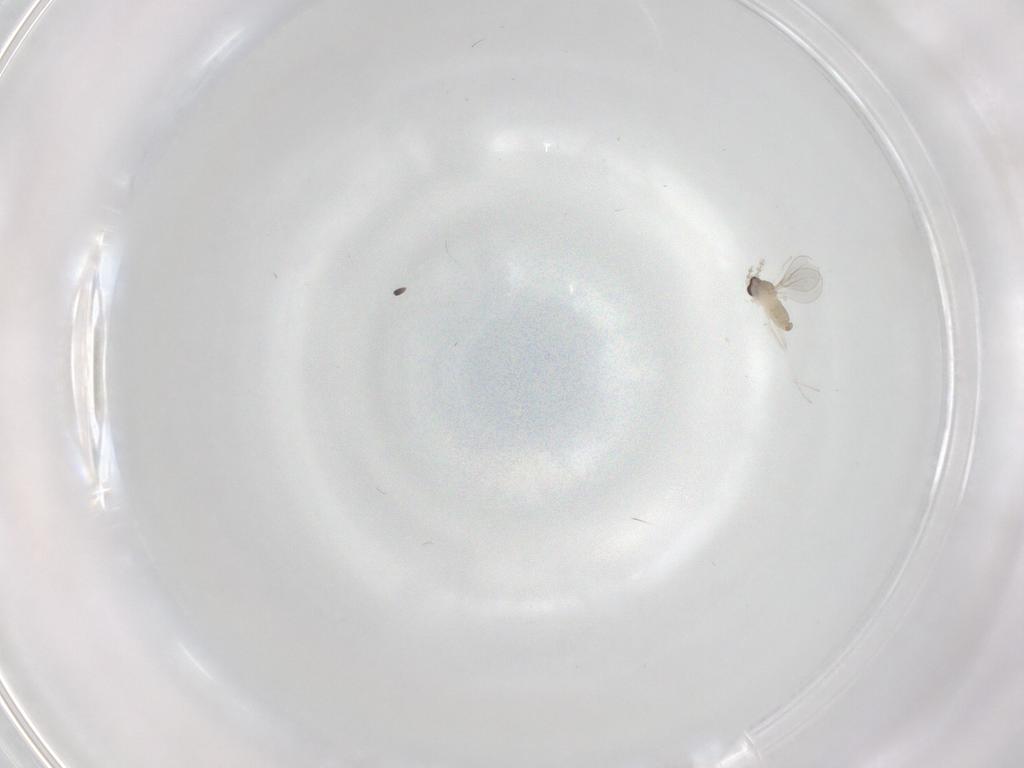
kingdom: Animalia
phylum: Arthropoda
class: Insecta
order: Diptera
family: Cecidomyiidae
